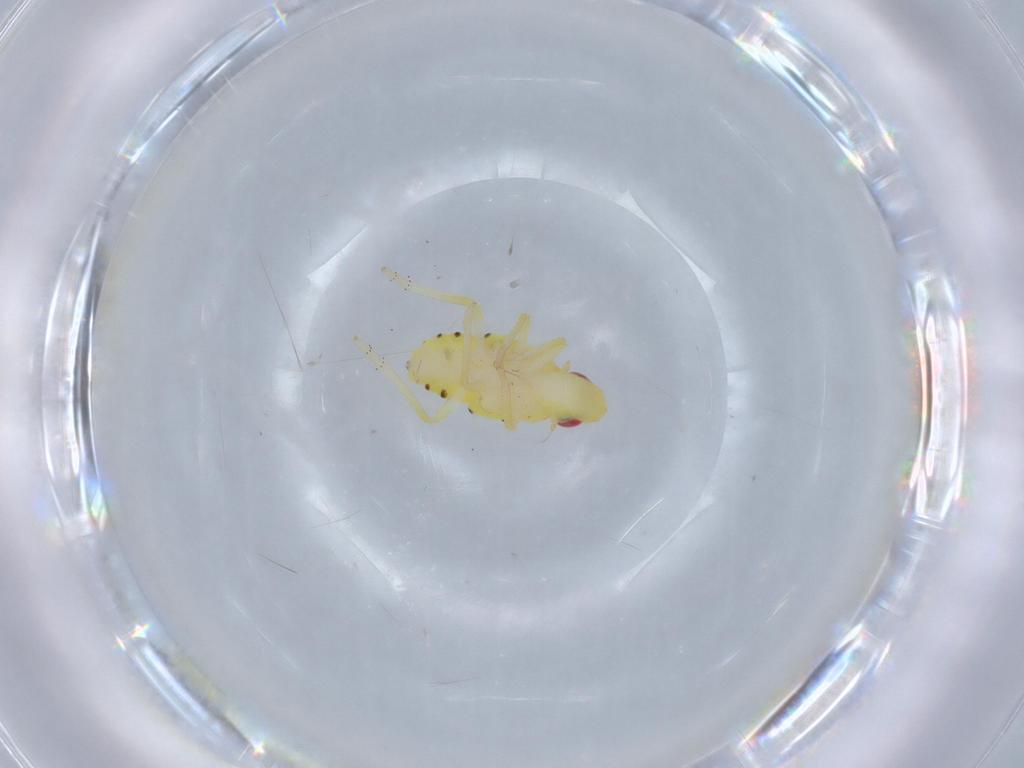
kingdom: Animalia
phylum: Arthropoda
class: Insecta
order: Hemiptera
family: Tropiduchidae
